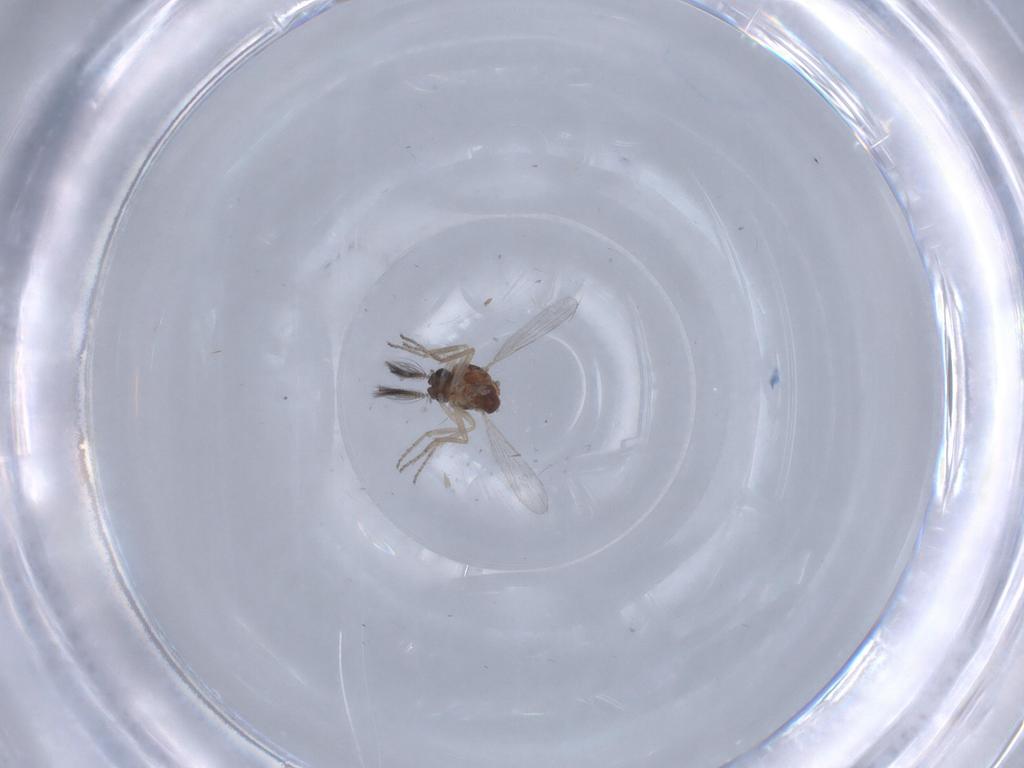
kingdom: Animalia
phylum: Arthropoda
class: Insecta
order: Diptera
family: Ceratopogonidae
